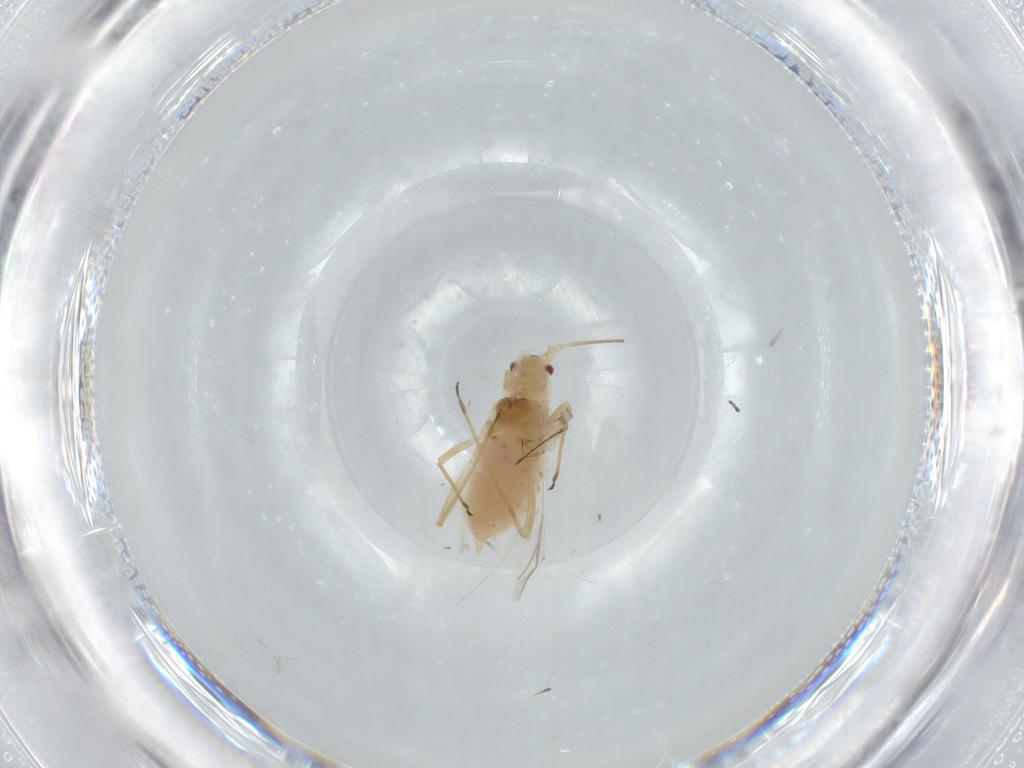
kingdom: Animalia
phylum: Arthropoda
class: Insecta
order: Hemiptera
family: Aphididae
